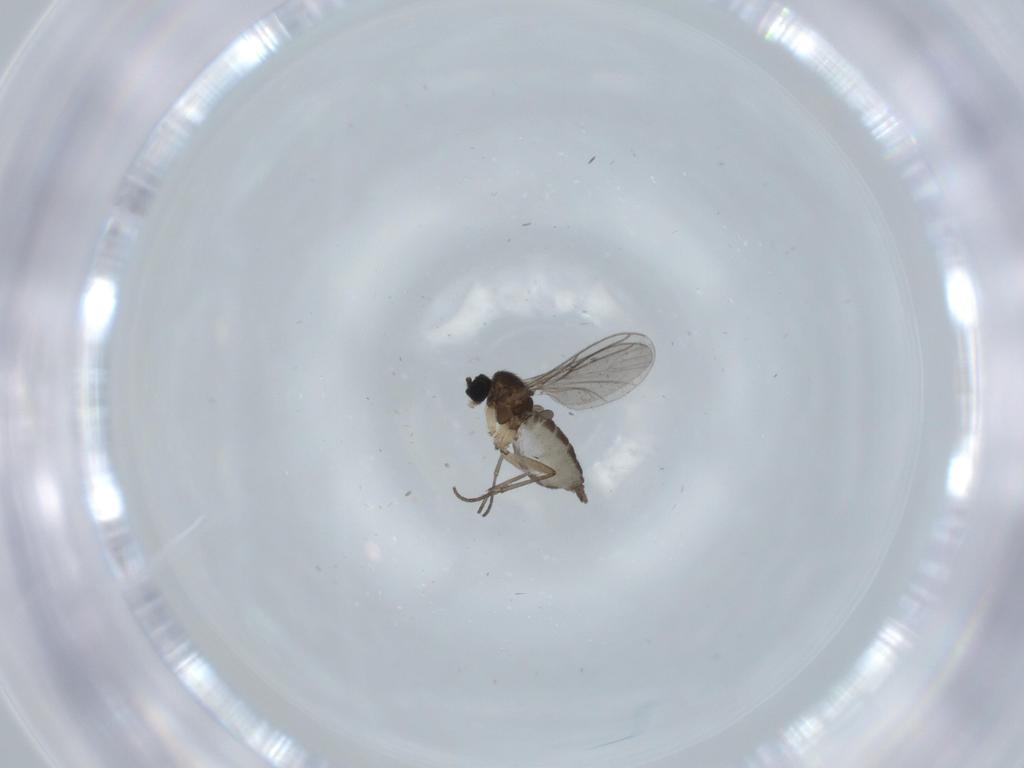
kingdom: Animalia
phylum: Arthropoda
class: Insecta
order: Diptera
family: Sciaridae
